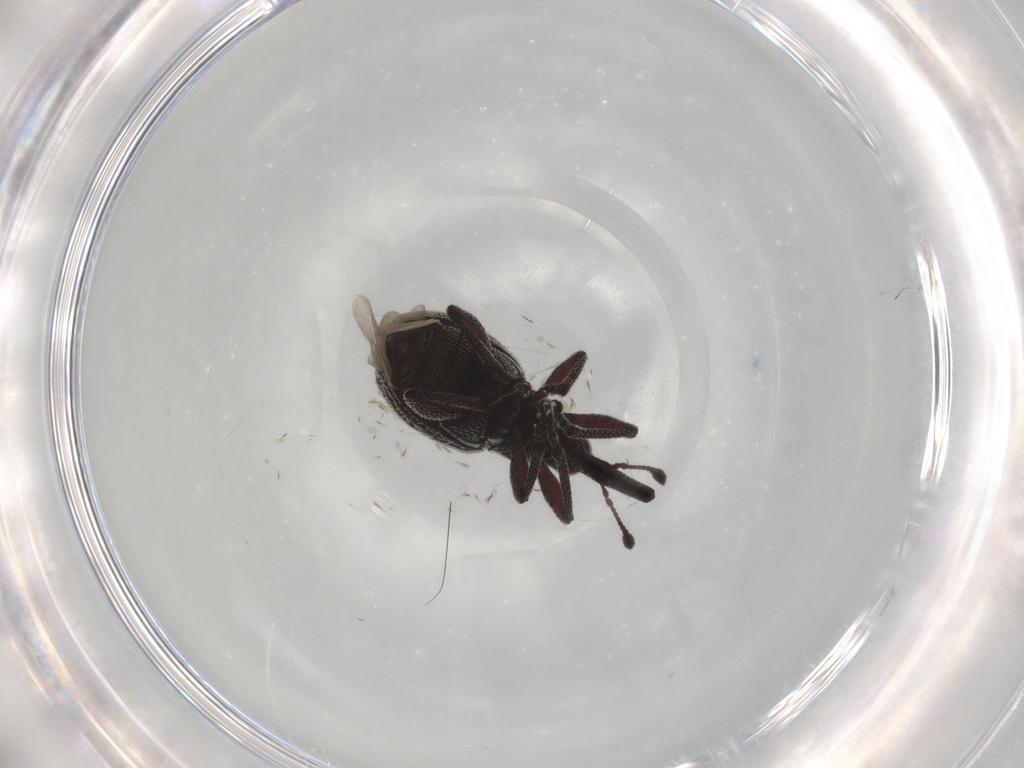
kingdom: Animalia
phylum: Arthropoda
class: Insecta
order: Coleoptera
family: Brentidae
